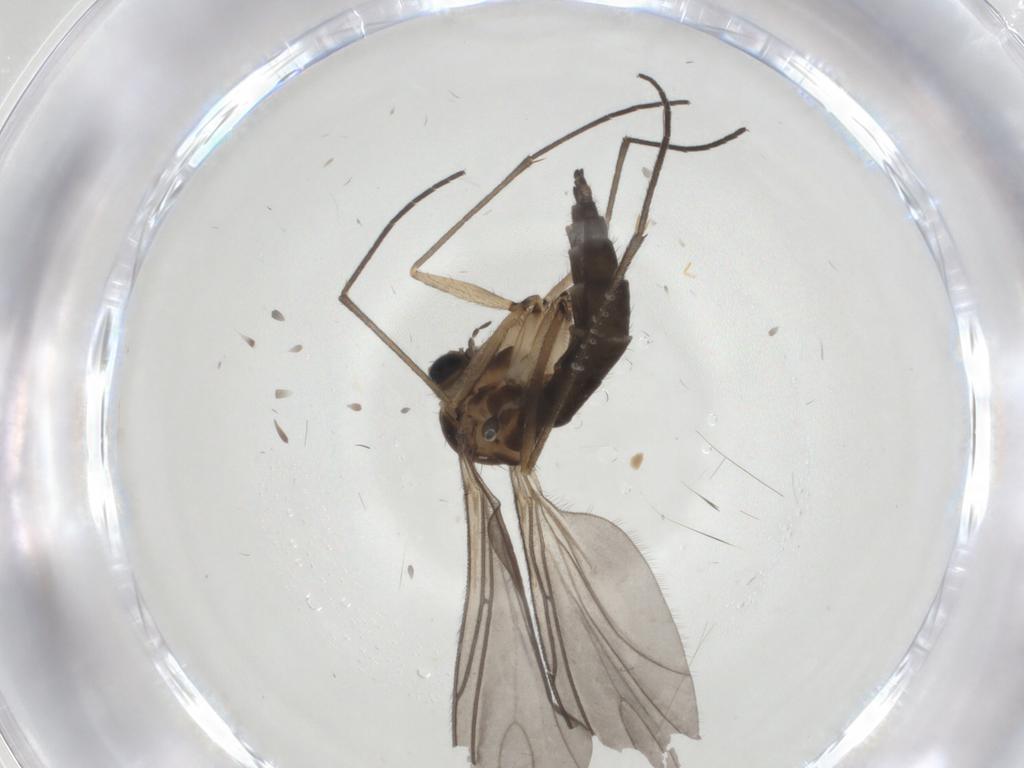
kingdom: Animalia
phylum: Arthropoda
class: Insecta
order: Diptera
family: Sciaridae
